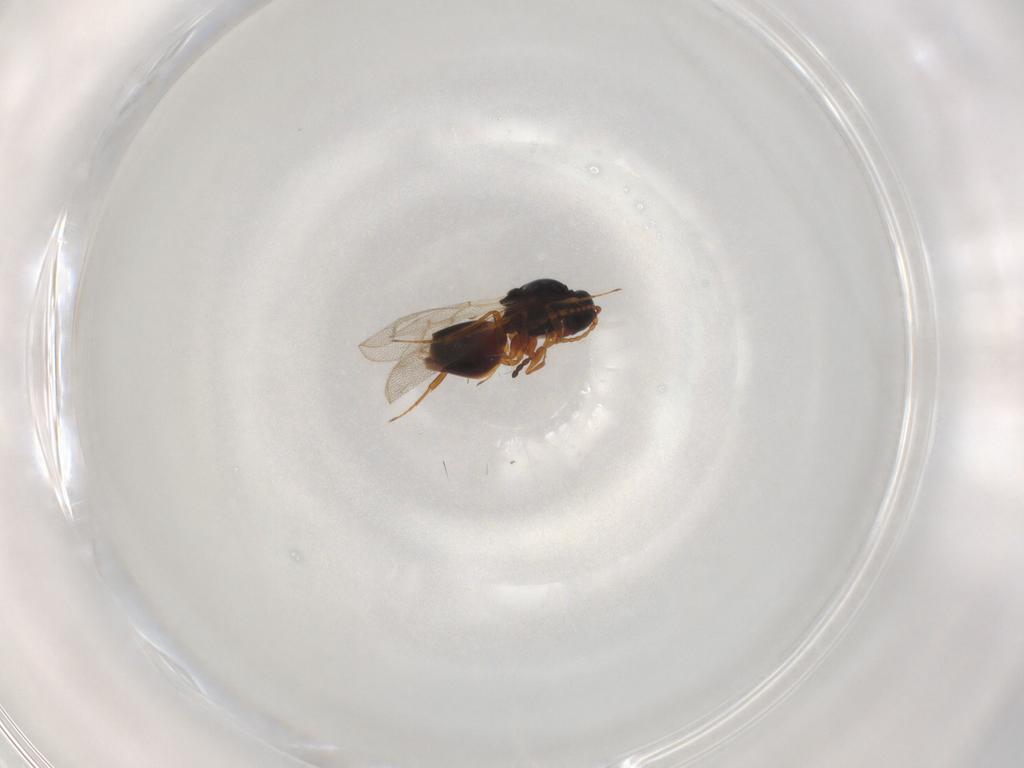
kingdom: Animalia
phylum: Arthropoda
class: Insecta
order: Hymenoptera
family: Figitidae
